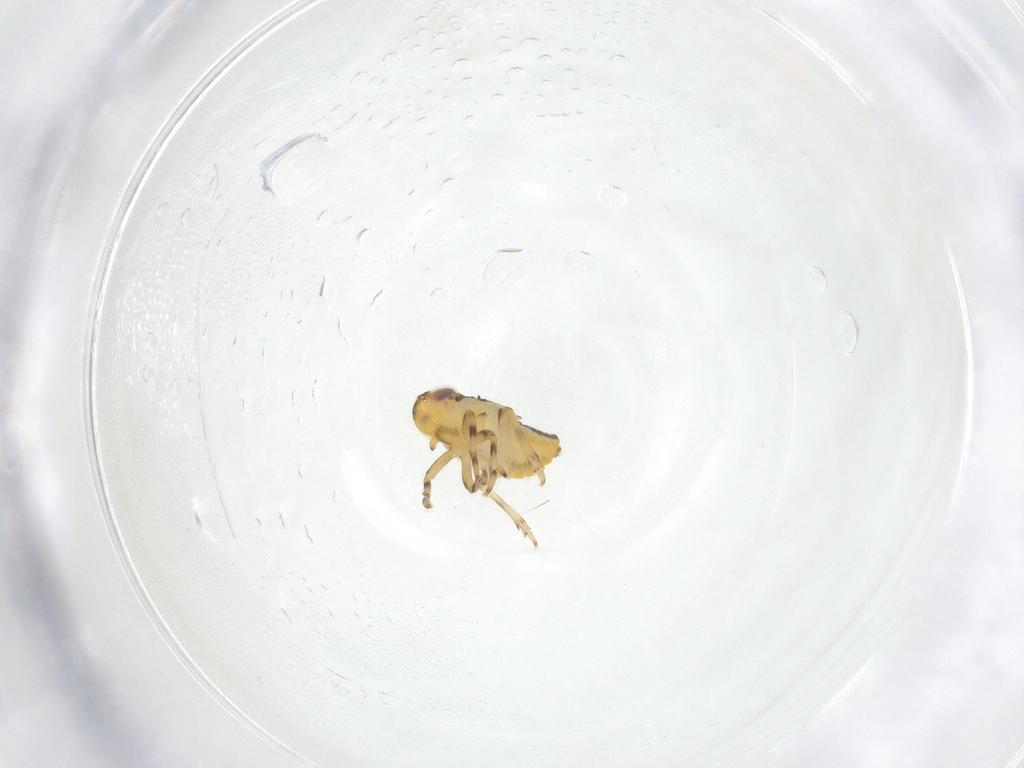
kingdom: Animalia
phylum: Arthropoda
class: Insecta
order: Hemiptera
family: Issidae
